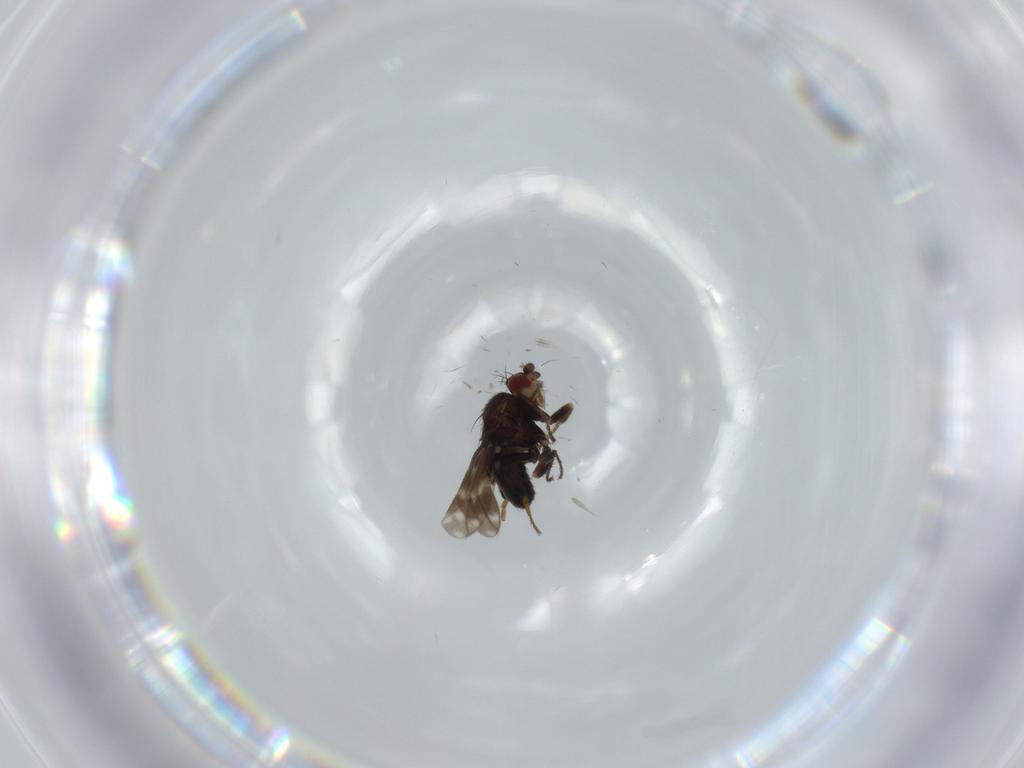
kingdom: Animalia
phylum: Arthropoda
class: Insecta
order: Diptera
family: Sphaeroceridae
